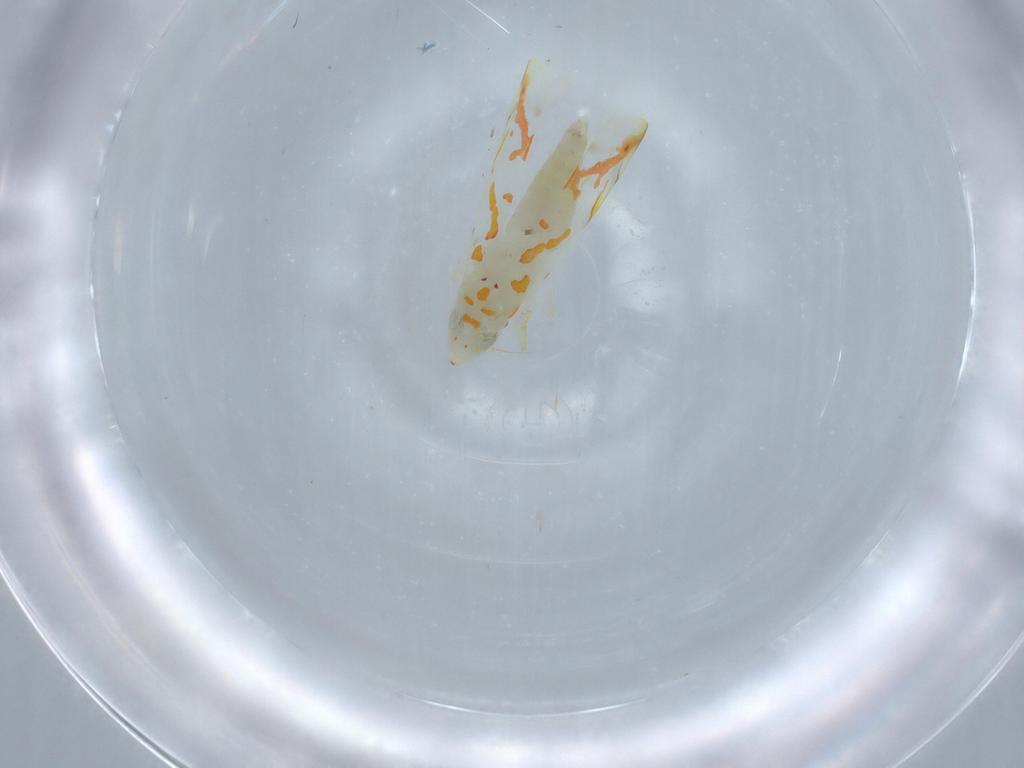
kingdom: Animalia
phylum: Arthropoda
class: Insecta
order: Hemiptera
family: Cicadellidae
